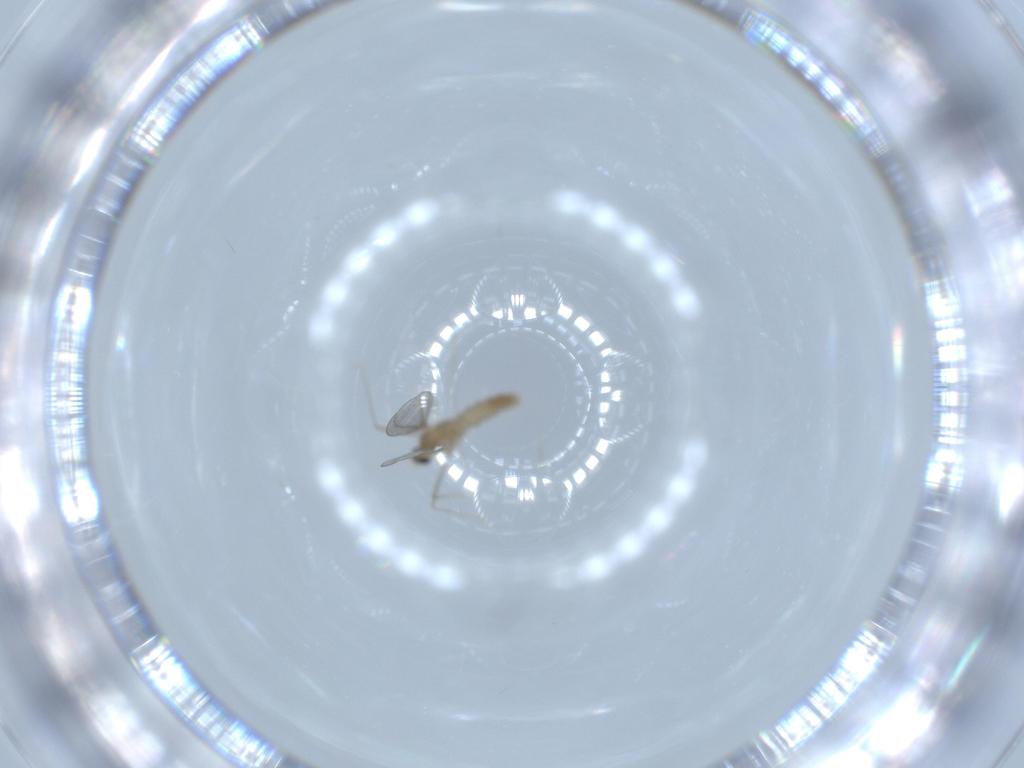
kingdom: Animalia
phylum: Arthropoda
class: Insecta
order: Diptera
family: Cecidomyiidae
